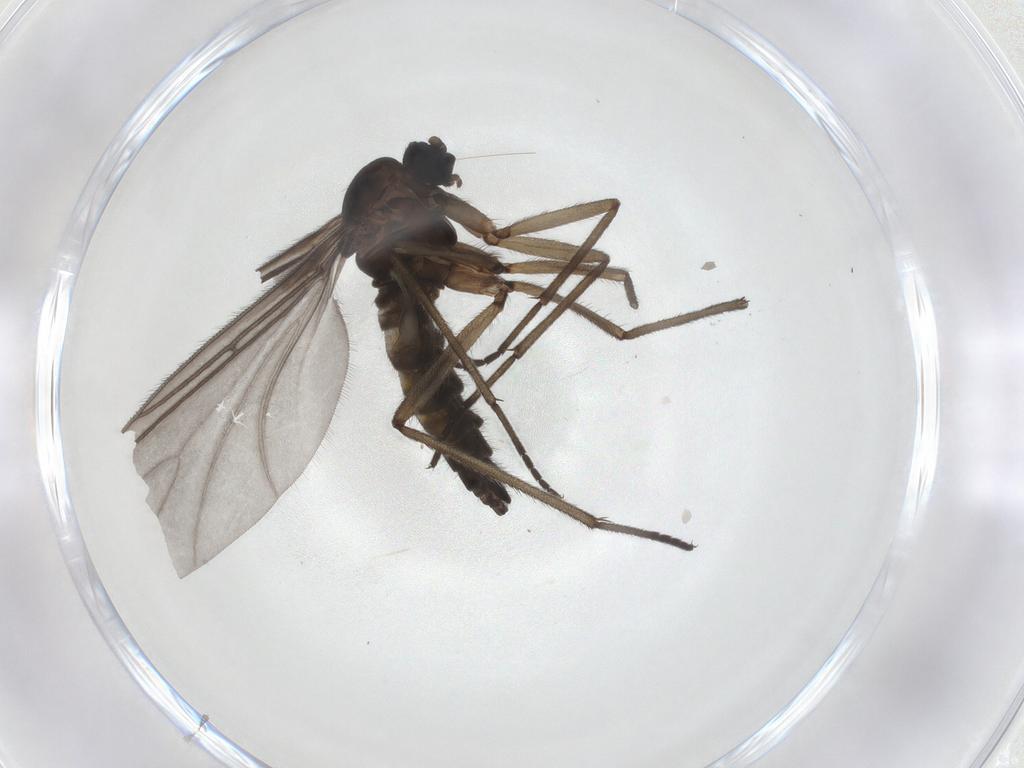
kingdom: Animalia
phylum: Arthropoda
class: Insecta
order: Diptera
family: Sciaridae
